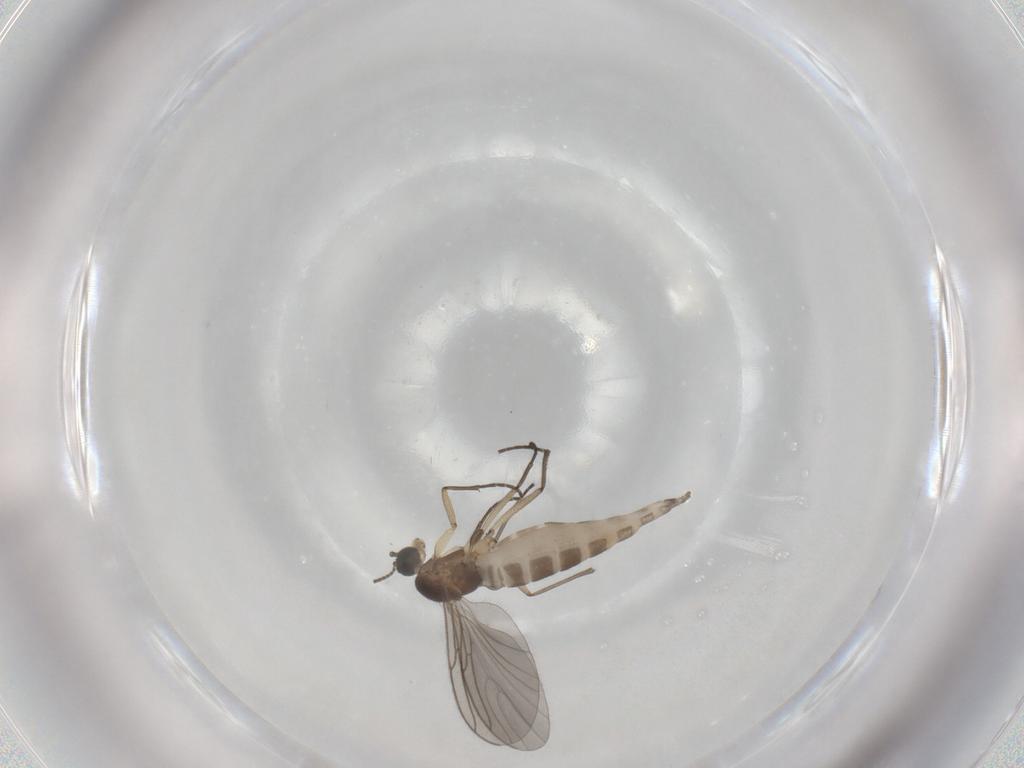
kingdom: Animalia
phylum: Arthropoda
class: Insecta
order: Diptera
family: Sciaridae
